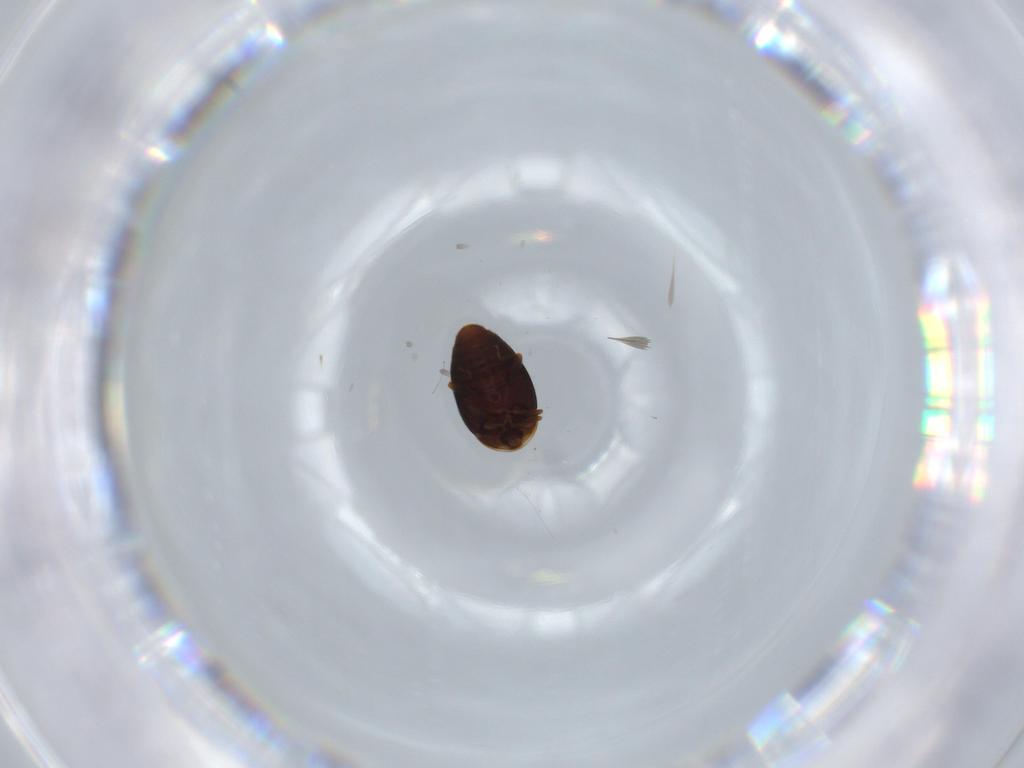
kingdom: Animalia
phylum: Arthropoda
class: Insecta
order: Coleoptera
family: Corylophidae
